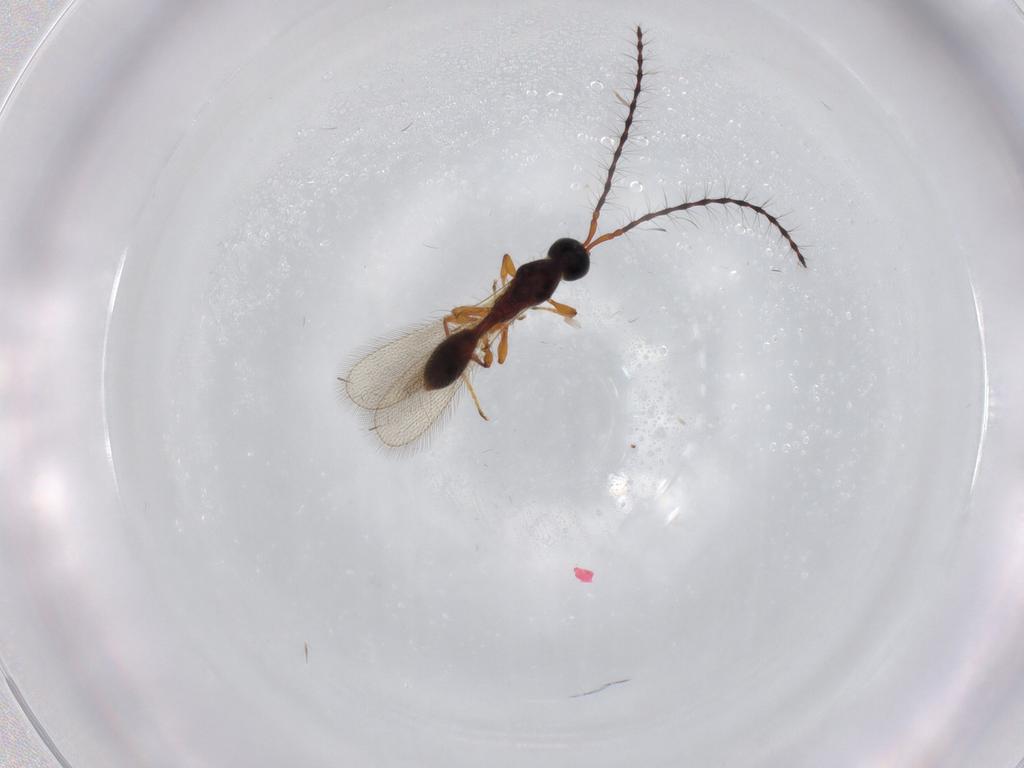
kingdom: Animalia
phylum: Arthropoda
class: Insecta
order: Hymenoptera
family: Diapriidae
